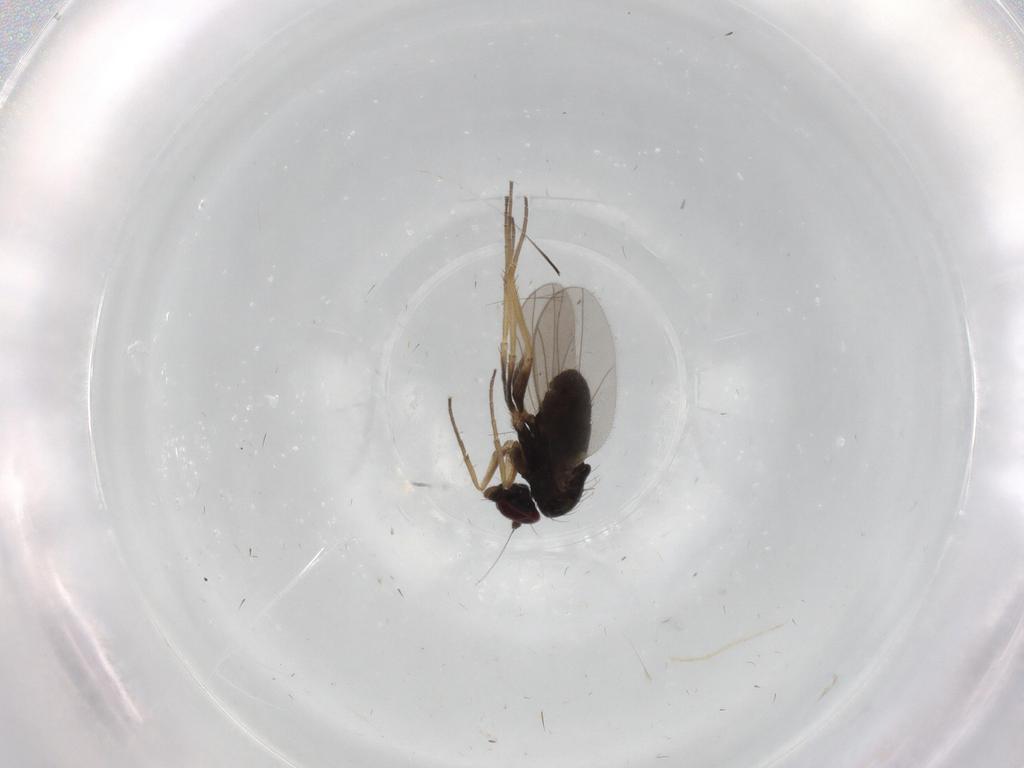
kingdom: Animalia
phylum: Arthropoda
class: Insecta
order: Diptera
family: Dolichopodidae
